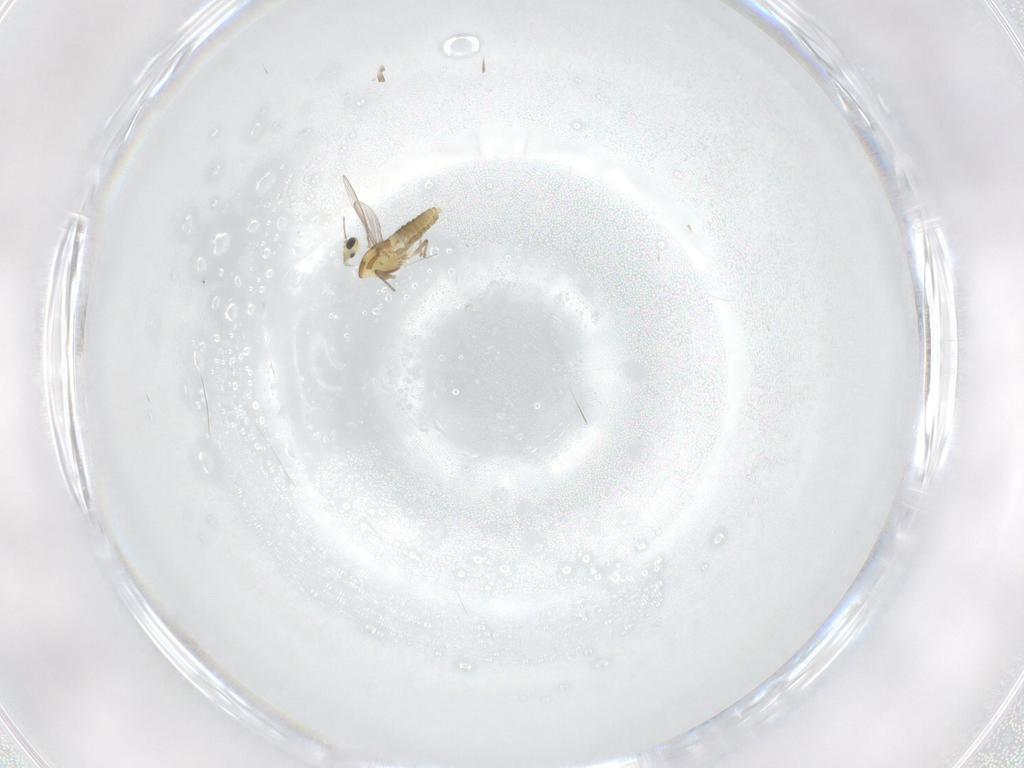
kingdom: Animalia
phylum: Arthropoda
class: Insecta
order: Diptera
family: Chironomidae
